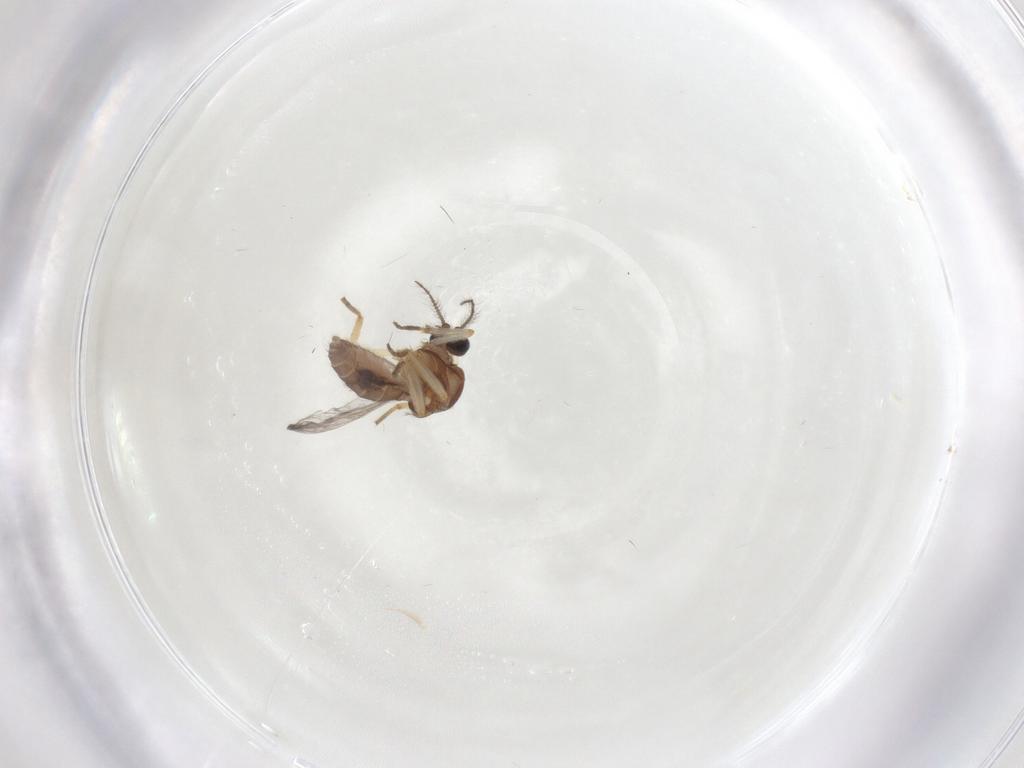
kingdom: Animalia
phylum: Arthropoda
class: Insecta
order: Diptera
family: Ceratopogonidae
